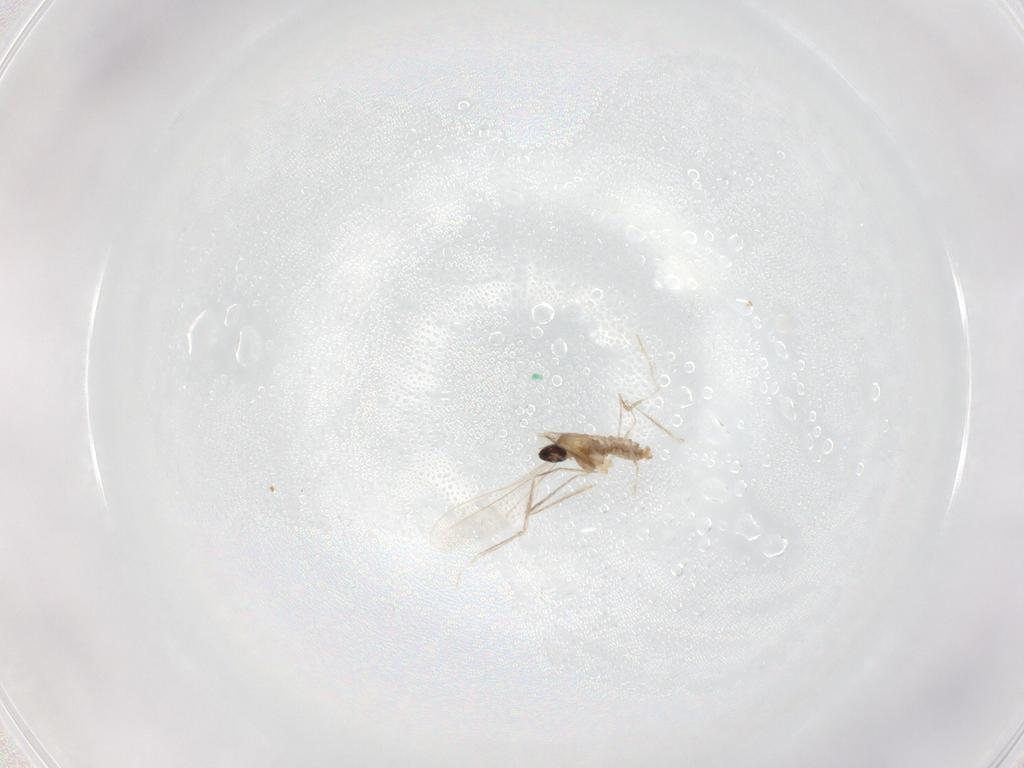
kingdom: Animalia
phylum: Arthropoda
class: Insecta
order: Diptera
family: Cecidomyiidae
